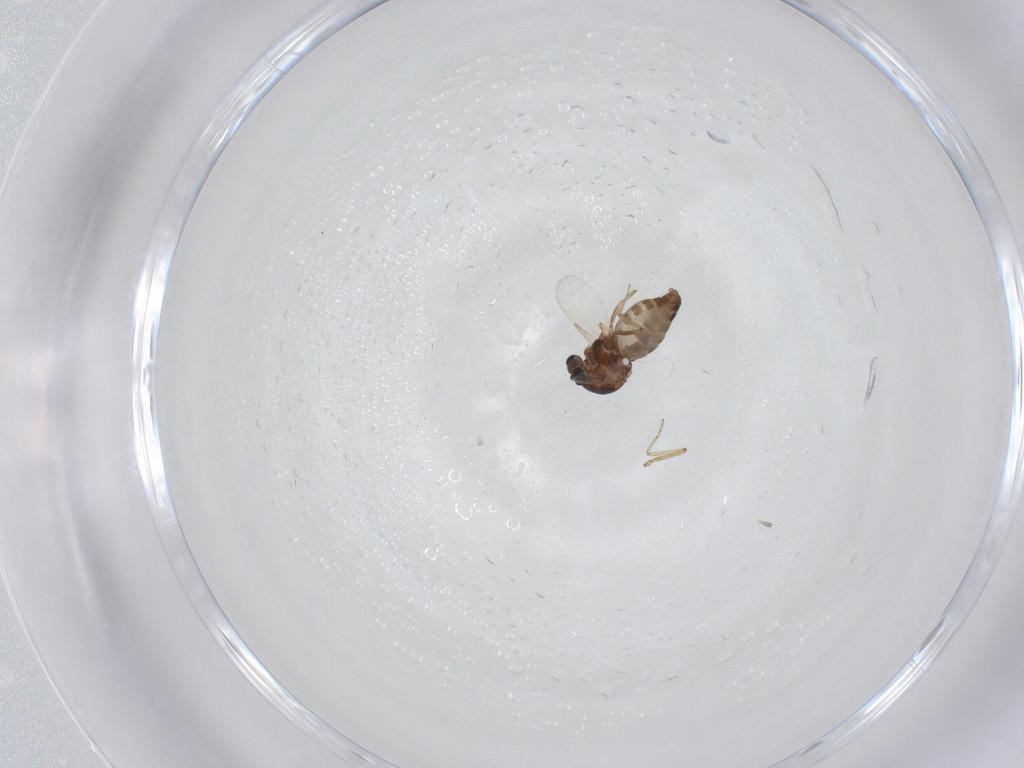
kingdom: Animalia
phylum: Arthropoda
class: Insecta
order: Diptera
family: Ceratopogonidae
